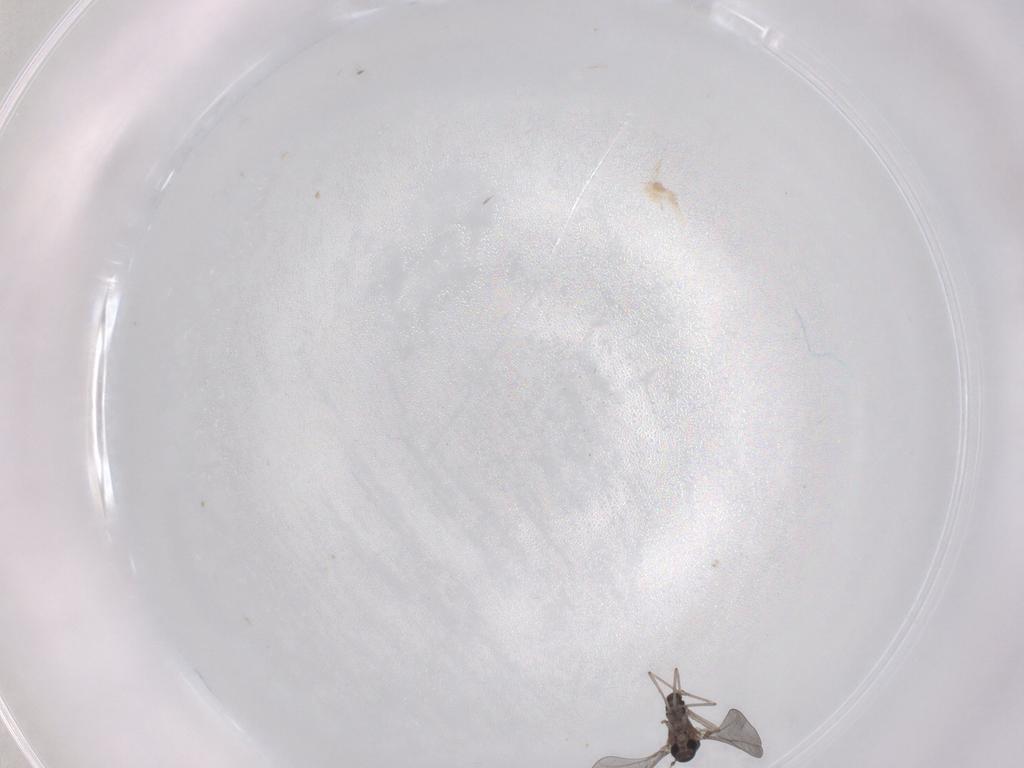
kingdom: Animalia
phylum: Arthropoda
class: Insecta
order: Diptera
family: Cecidomyiidae
